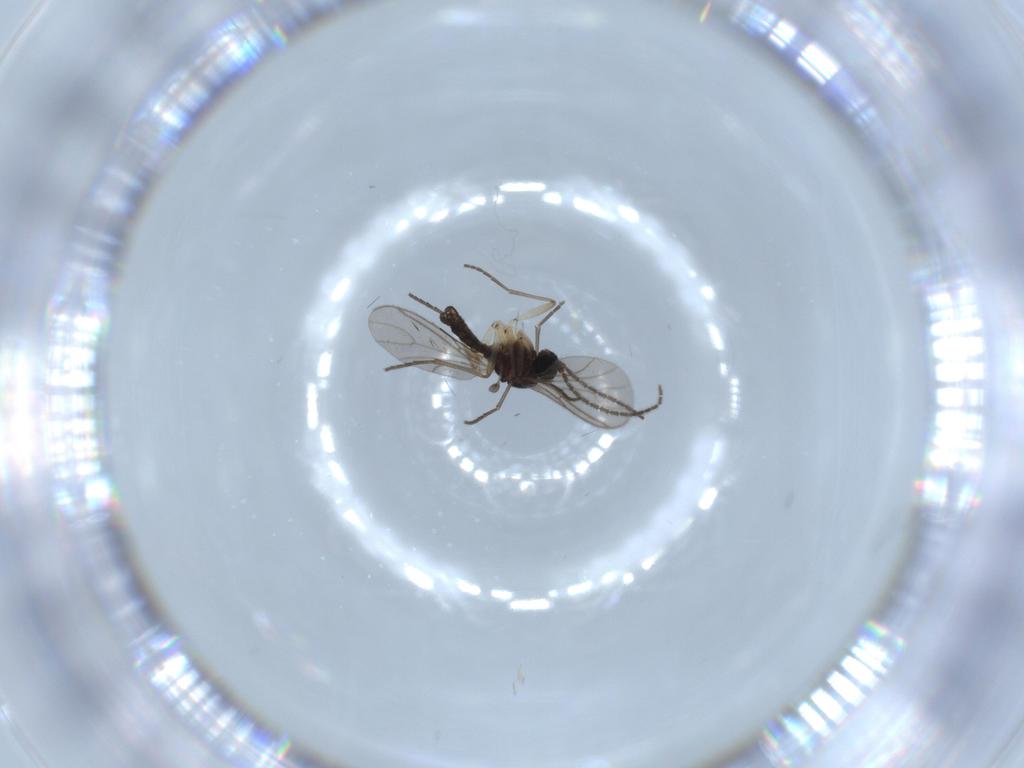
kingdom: Animalia
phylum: Arthropoda
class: Insecta
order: Diptera
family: Sciaridae
